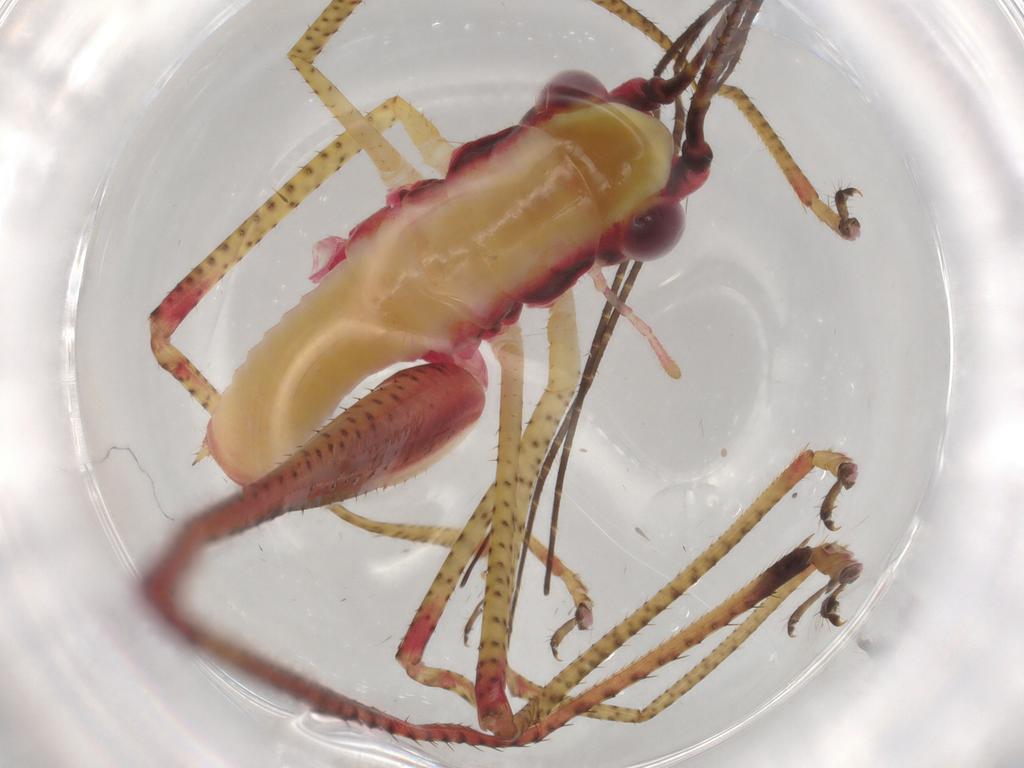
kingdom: Animalia
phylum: Arthropoda
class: Insecta
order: Orthoptera
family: Tettigoniidae
